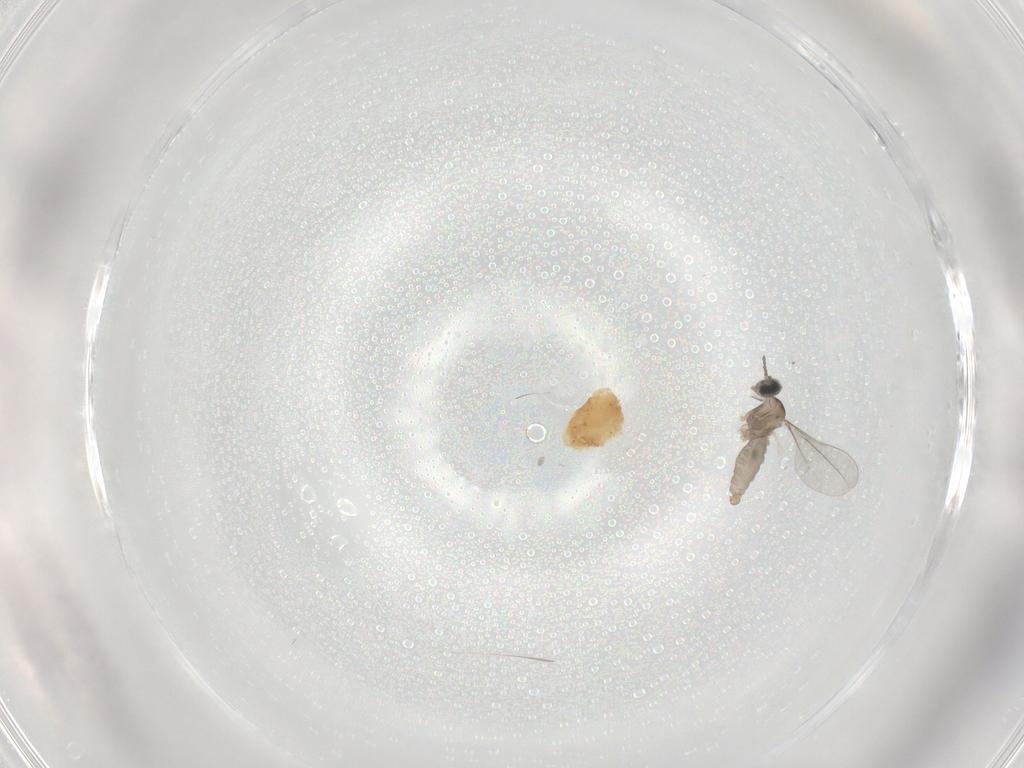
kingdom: Animalia
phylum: Arthropoda
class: Insecta
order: Diptera
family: Cecidomyiidae
